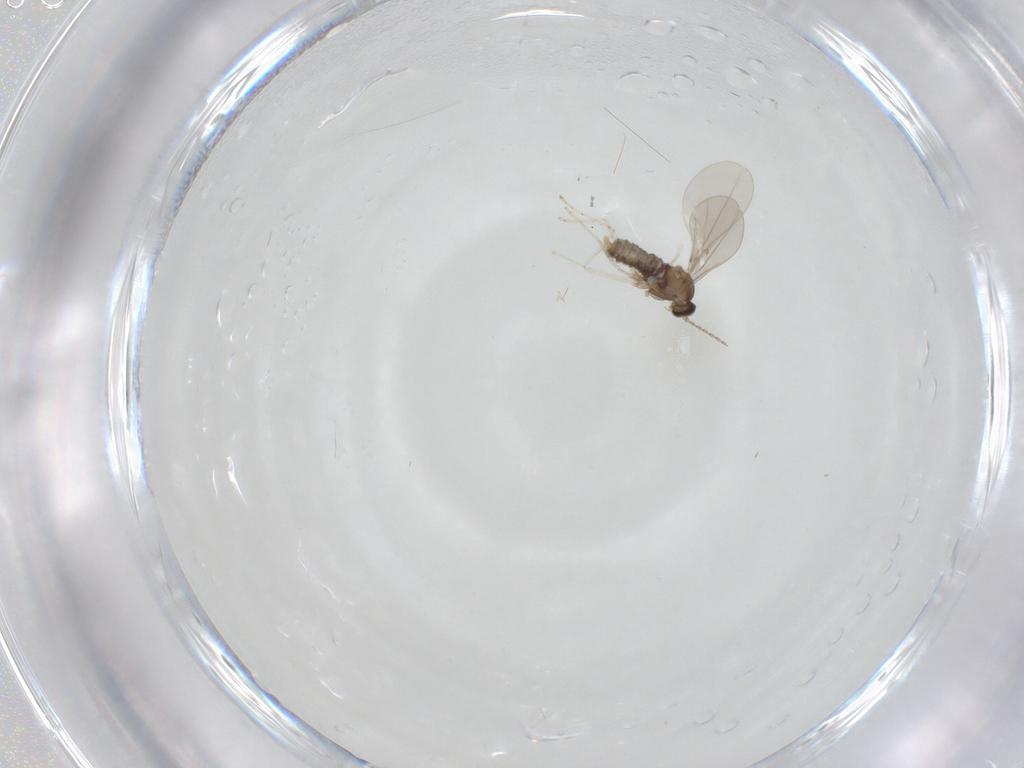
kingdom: Animalia
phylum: Arthropoda
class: Insecta
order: Diptera
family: Cecidomyiidae
